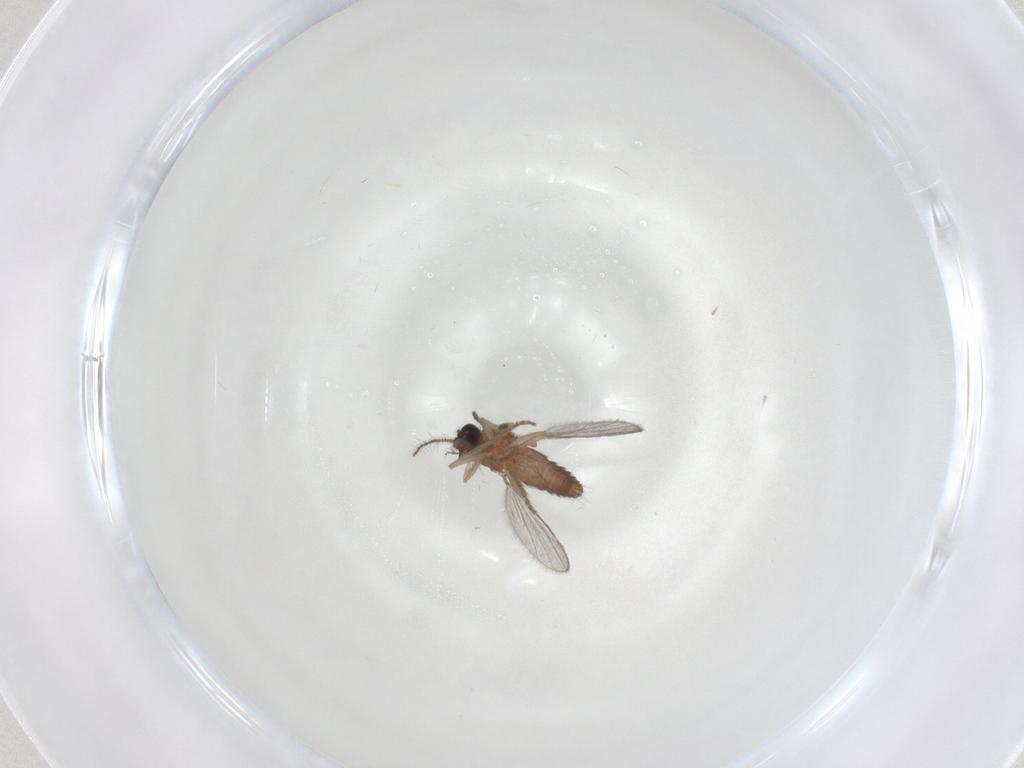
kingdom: Animalia
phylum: Arthropoda
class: Insecta
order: Diptera
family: Ceratopogonidae
